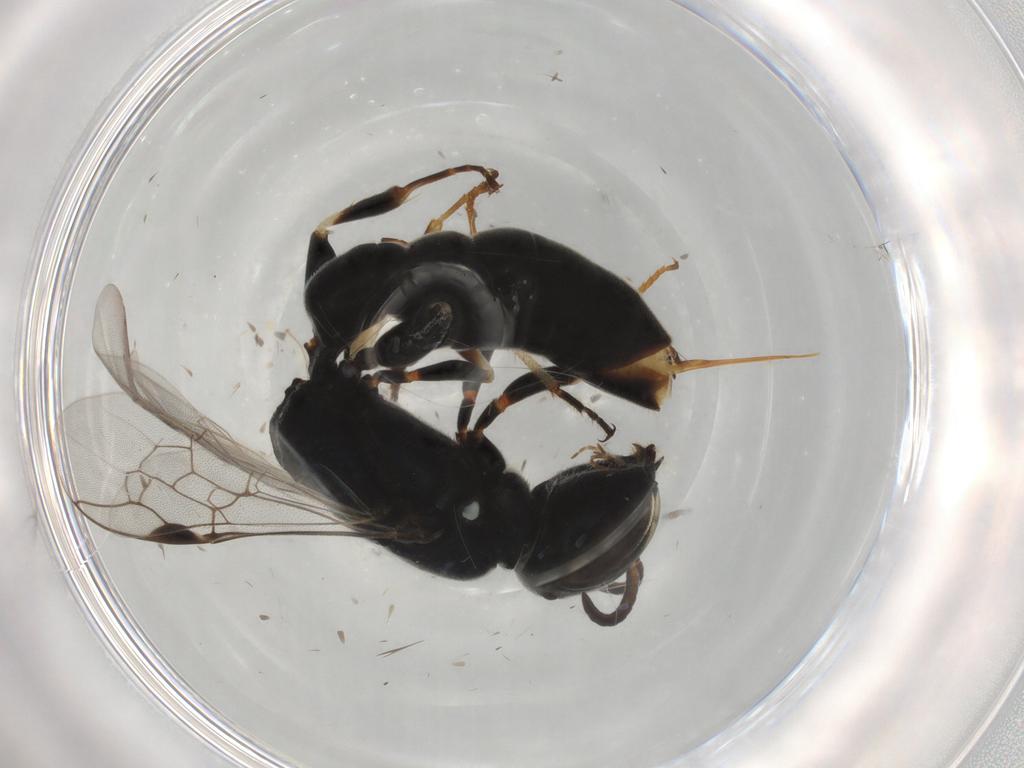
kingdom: Animalia
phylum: Arthropoda
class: Insecta
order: Hymenoptera
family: Crabronidae
